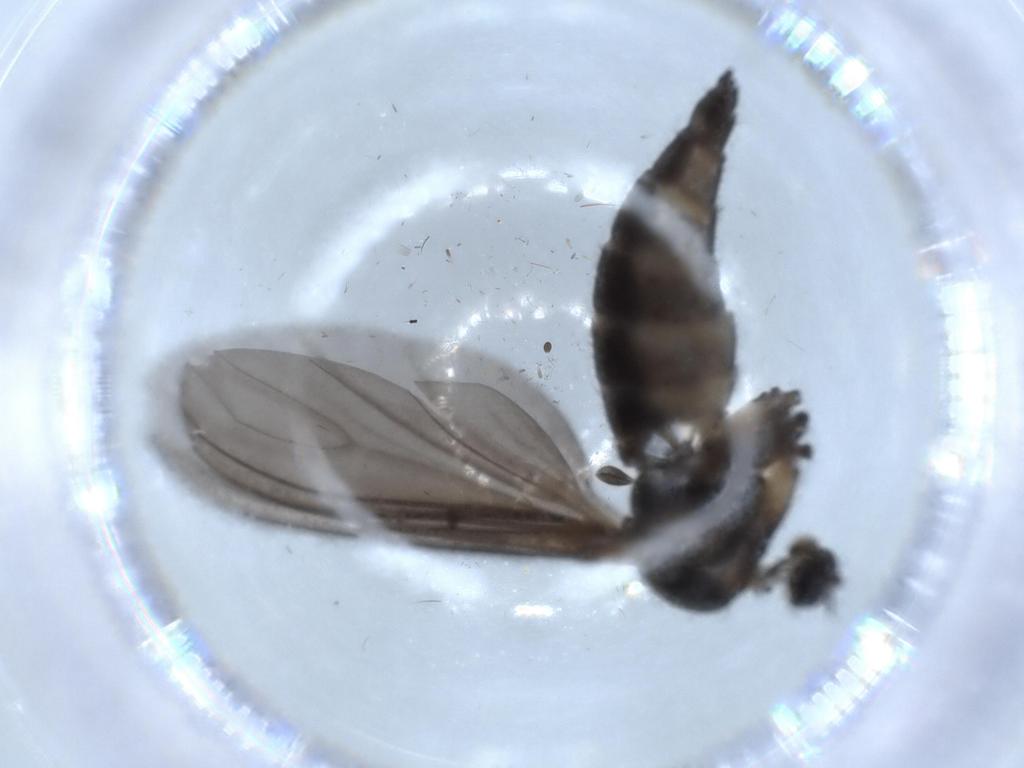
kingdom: Animalia
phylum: Arthropoda
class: Insecta
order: Diptera
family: Sciaridae
